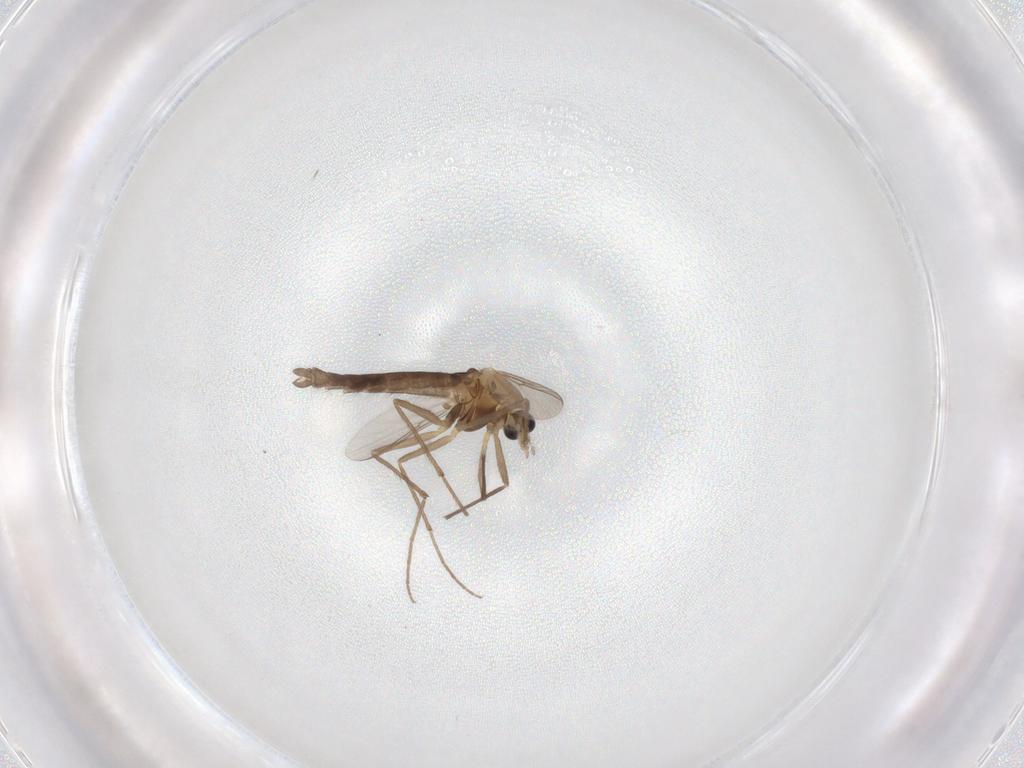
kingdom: Animalia
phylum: Arthropoda
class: Insecta
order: Diptera
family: Chironomidae
